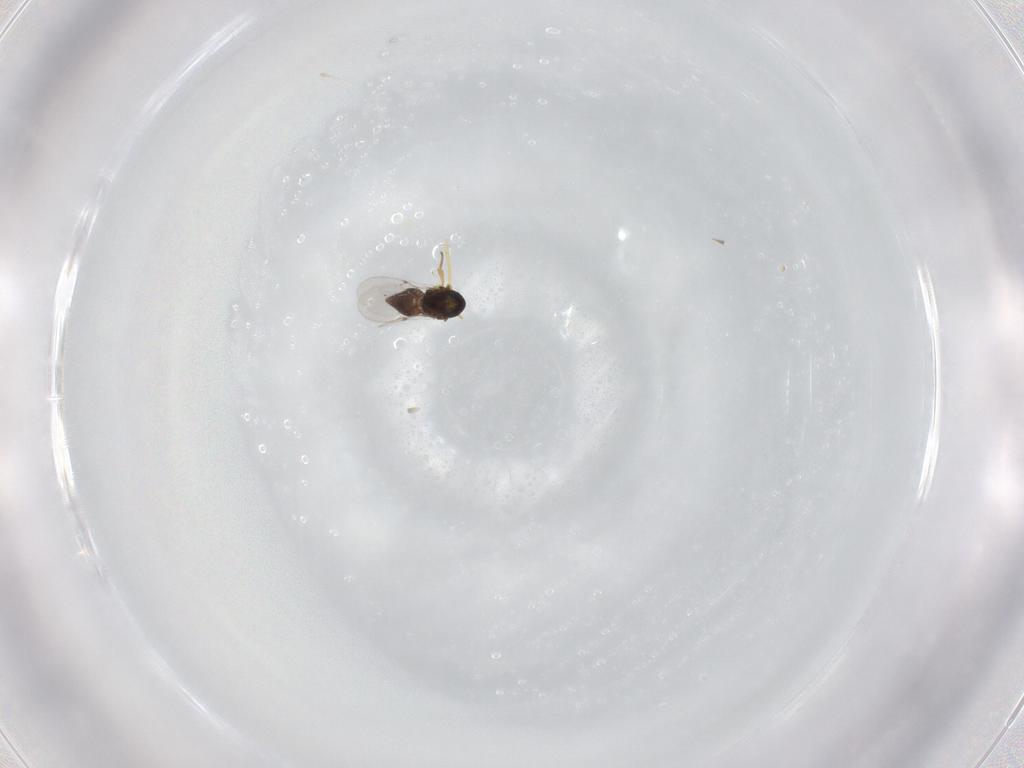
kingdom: Animalia
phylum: Arthropoda
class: Insecta
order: Hymenoptera
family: Encyrtidae
